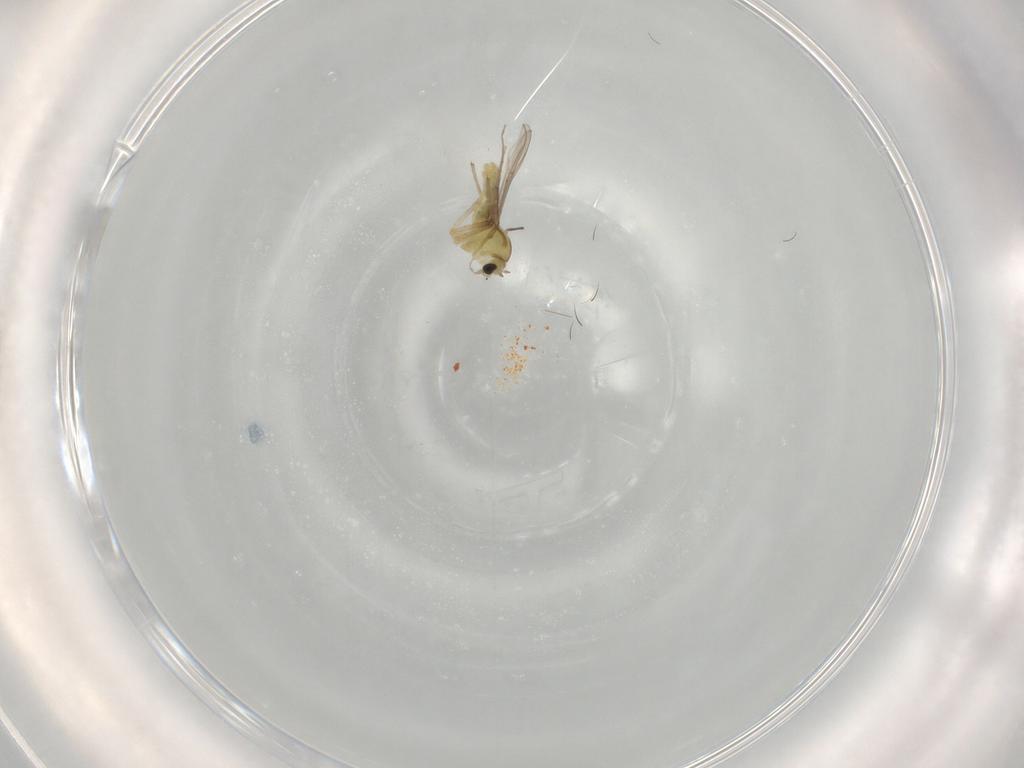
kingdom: Animalia
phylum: Arthropoda
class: Insecta
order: Diptera
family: Chironomidae
